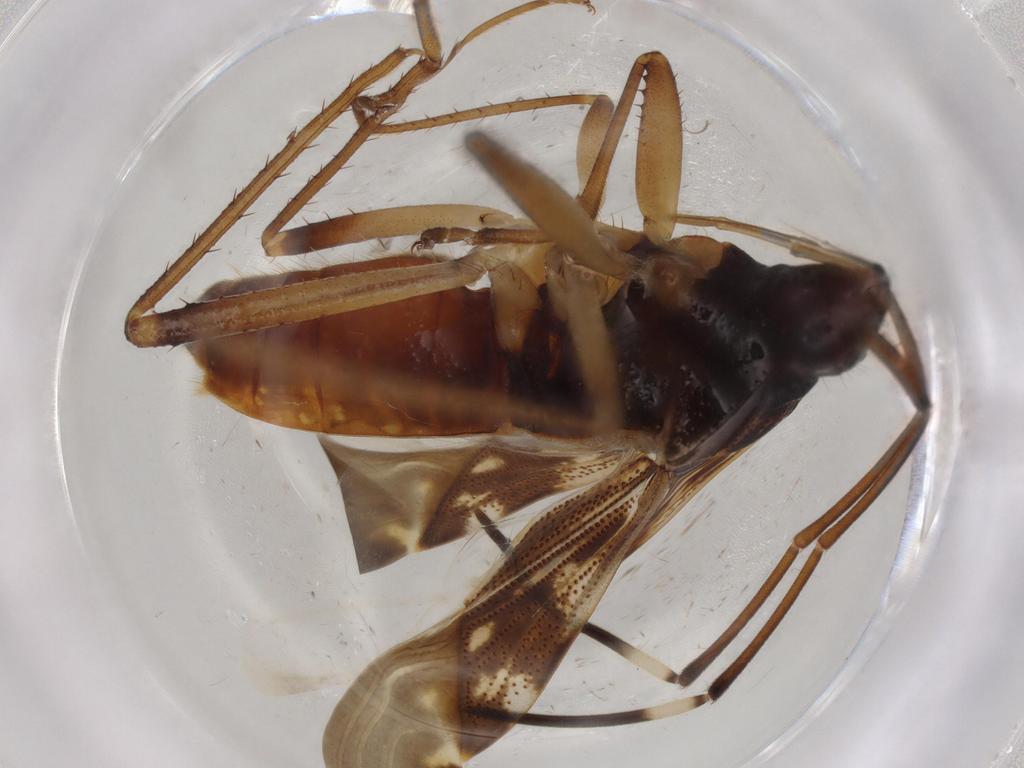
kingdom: Animalia
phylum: Arthropoda
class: Insecta
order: Hemiptera
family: Rhyparochromidae
